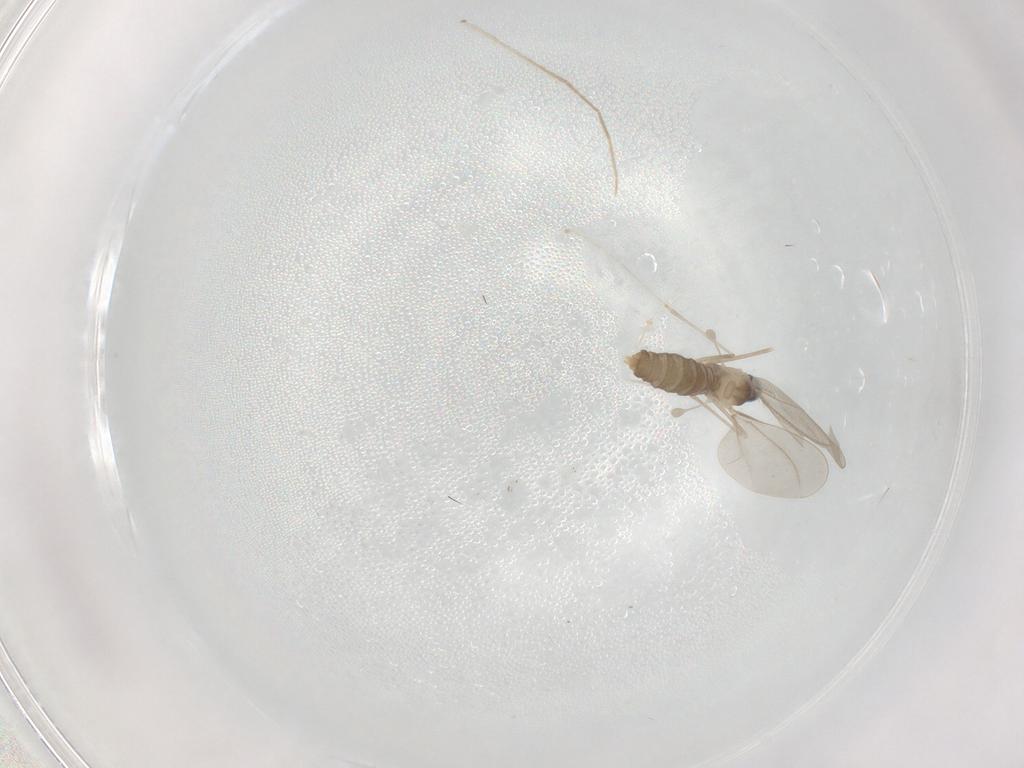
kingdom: Animalia
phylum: Arthropoda
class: Insecta
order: Diptera
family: Cecidomyiidae
